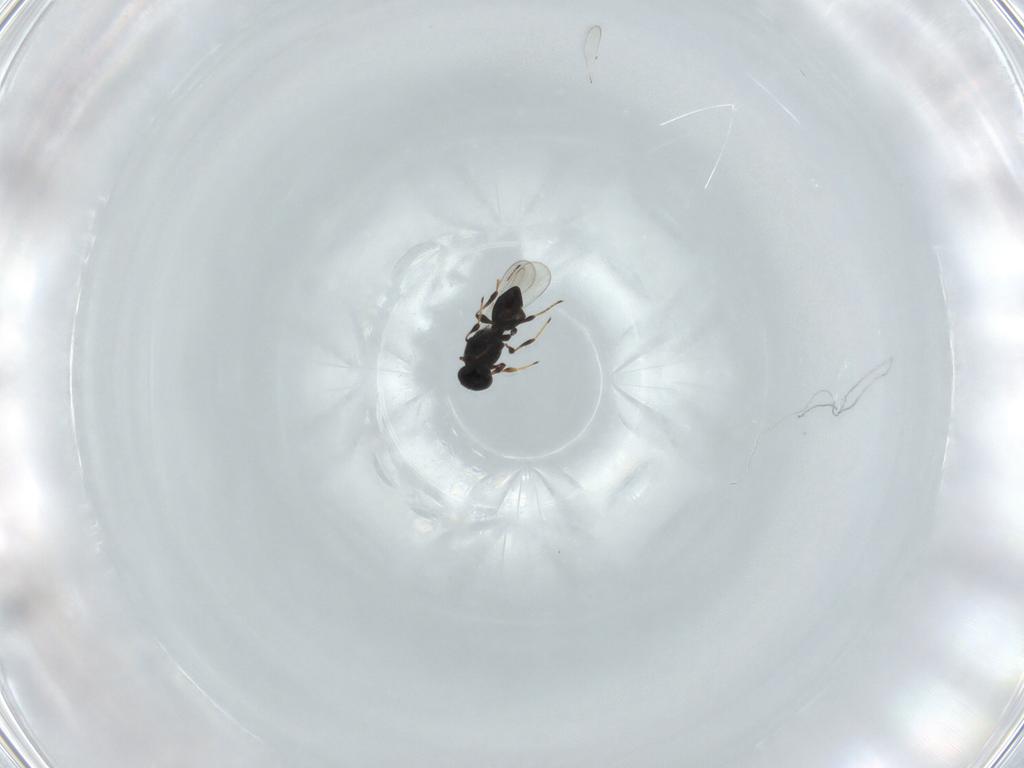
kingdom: Animalia
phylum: Arthropoda
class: Insecta
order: Hymenoptera
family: Platygastridae
